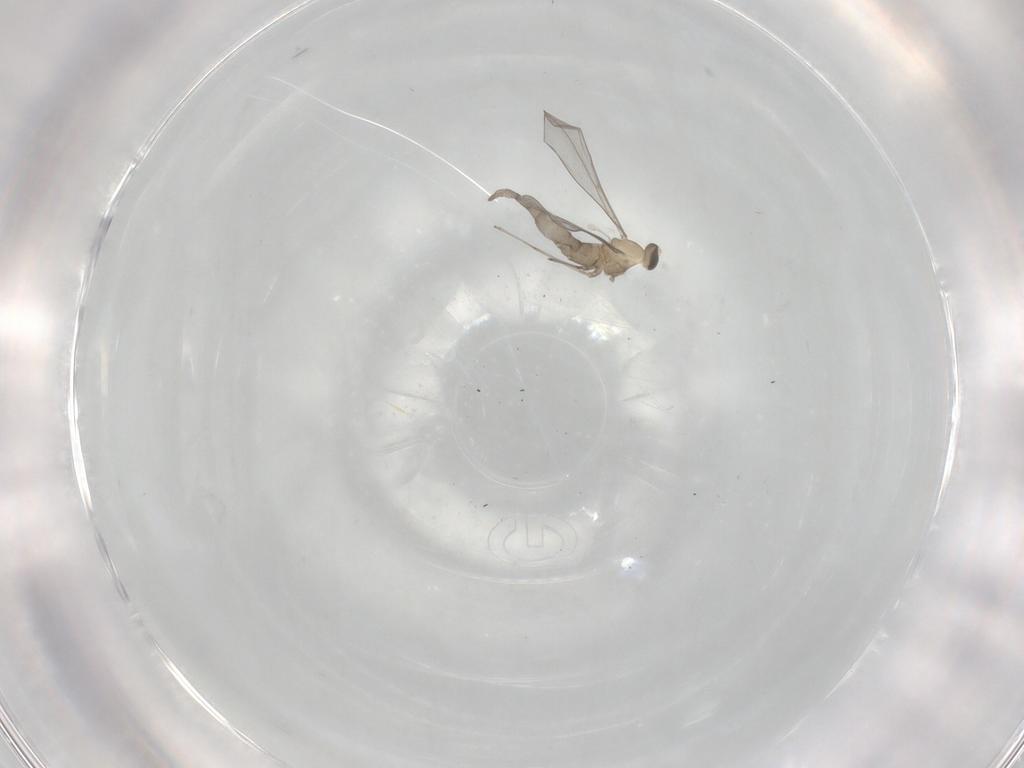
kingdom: Animalia
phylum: Arthropoda
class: Insecta
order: Diptera
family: Cecidomyiidae
